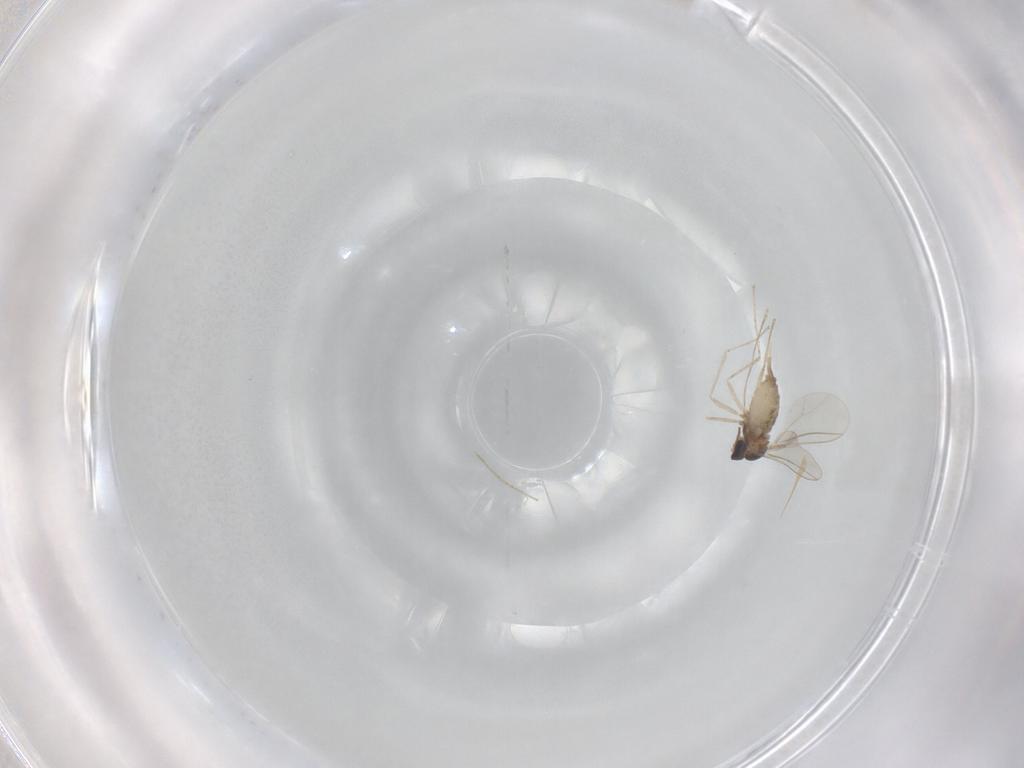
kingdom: Animalia
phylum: Arthropoda
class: Insecta
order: Diptera
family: Cecidomyiidae
